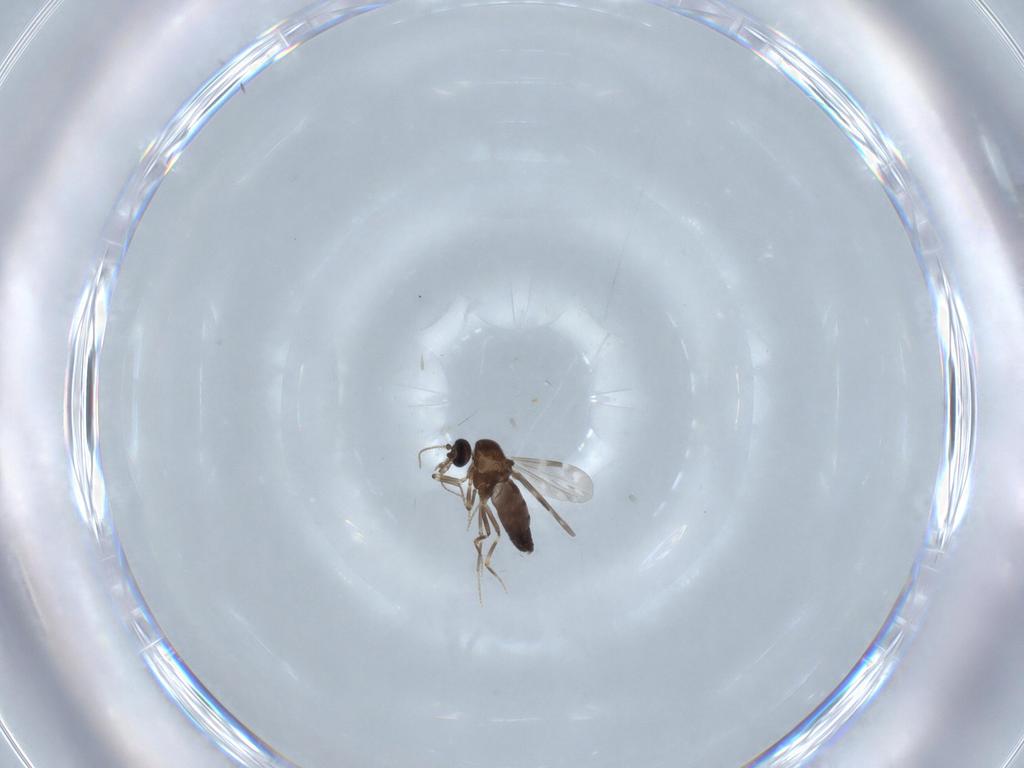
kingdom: Animalia
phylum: Arthropoda
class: Insecta
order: Diptera
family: Ceratopogonidae
